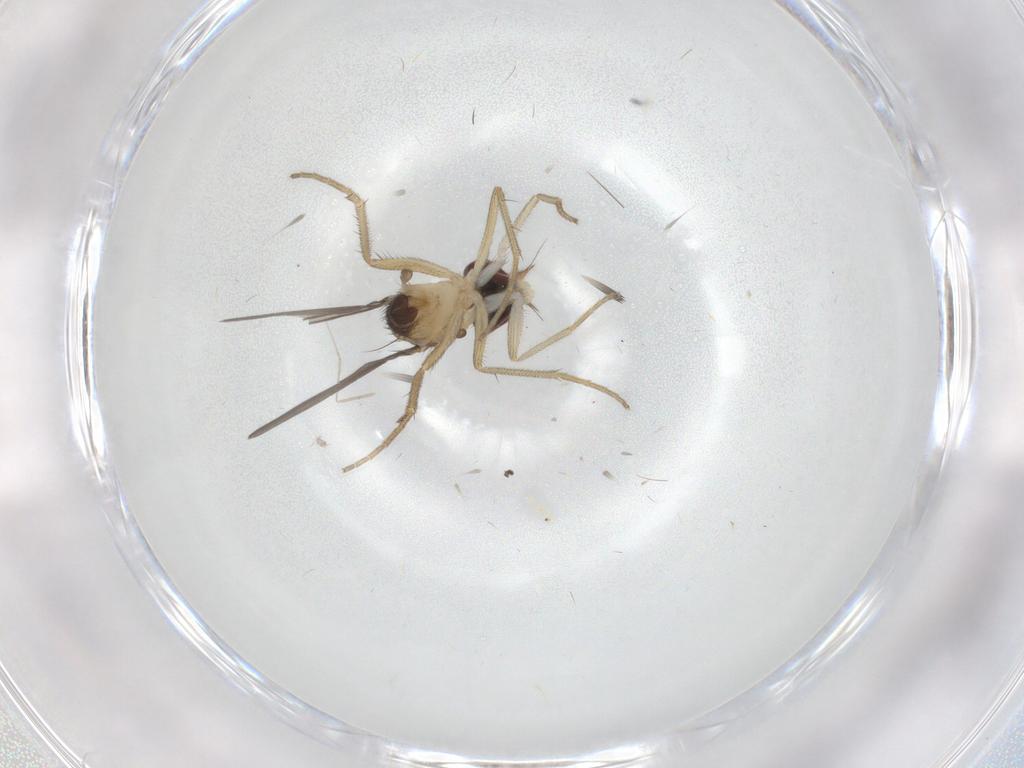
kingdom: Animalia
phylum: Arthropoda
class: Insecta
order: Diptera
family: Dolichopodidae
